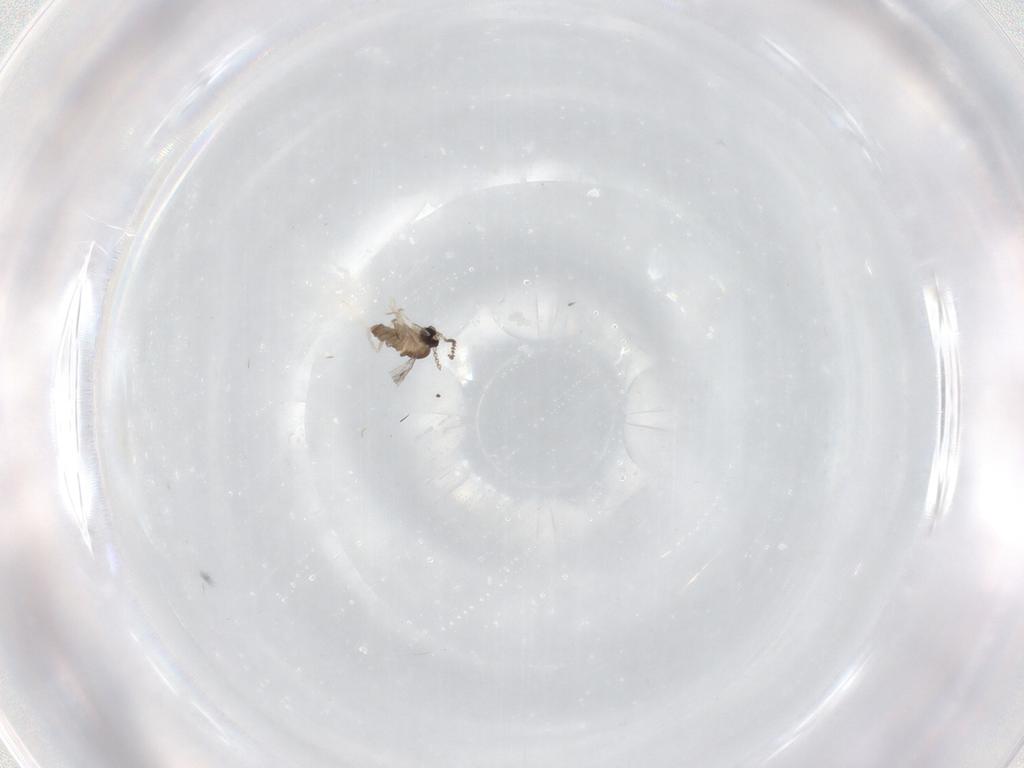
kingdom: Animalia
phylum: Arthropoda
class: Insecta
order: Diptera
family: Cecidomyiidae
